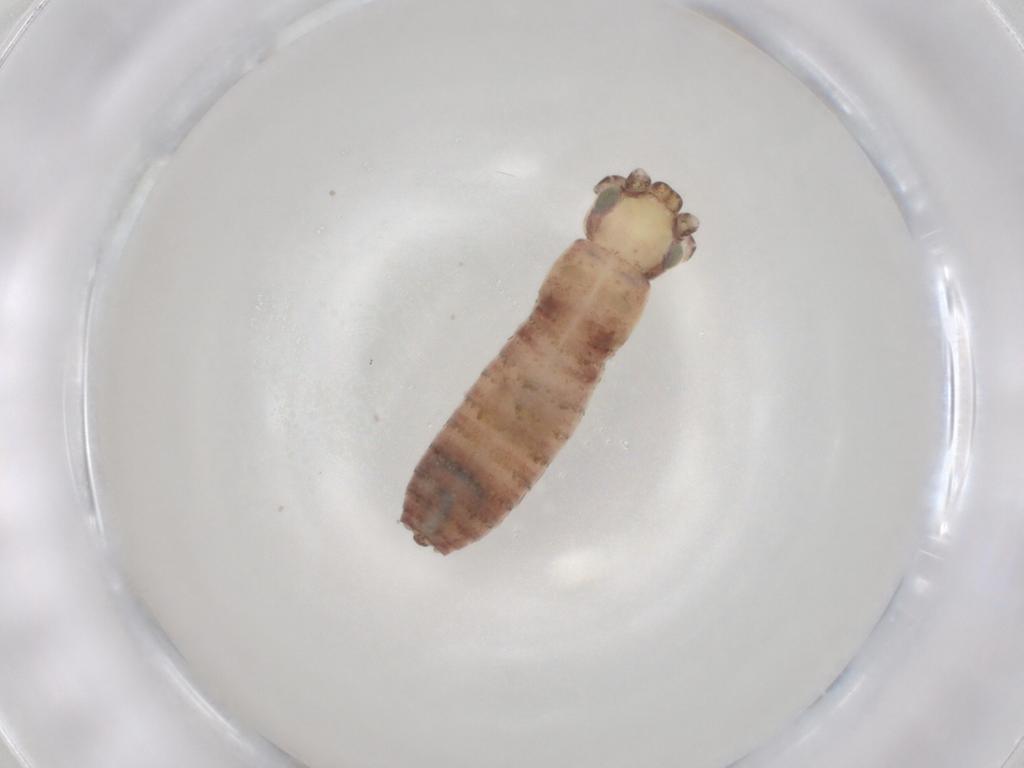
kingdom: Animalia
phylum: Arthropoda
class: Insecta
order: Orthoptera
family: Mogoplistidae
